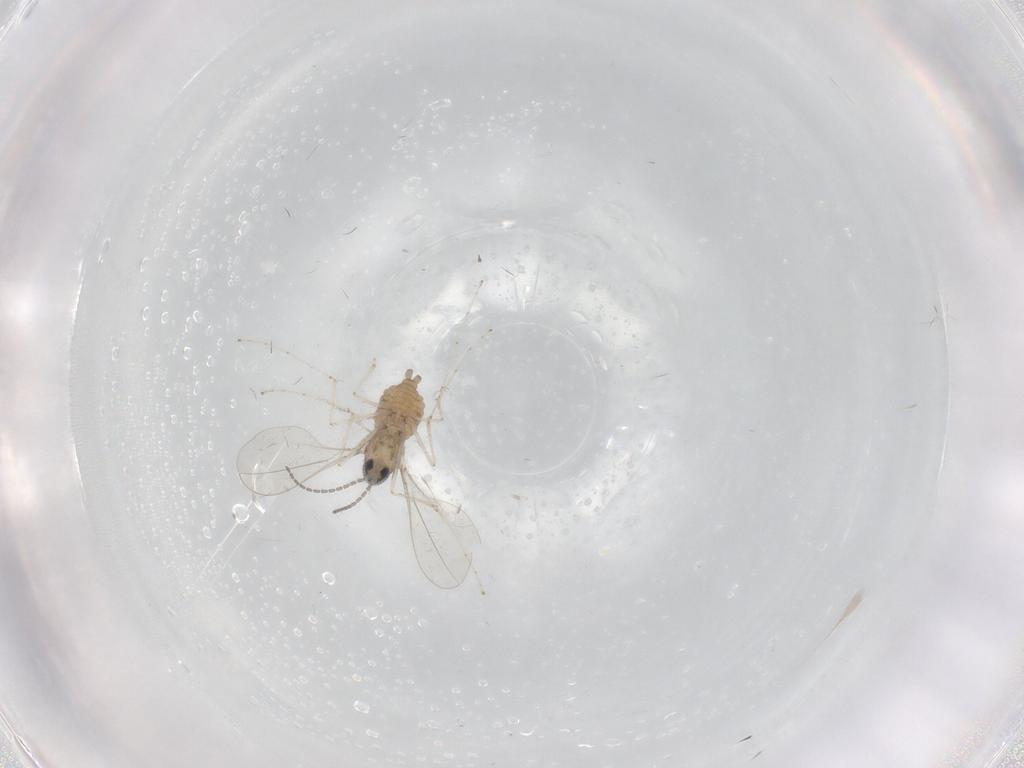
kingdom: Animalia
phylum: Arthropoda
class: Insecta
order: Diptera
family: Cecidomyiidae
